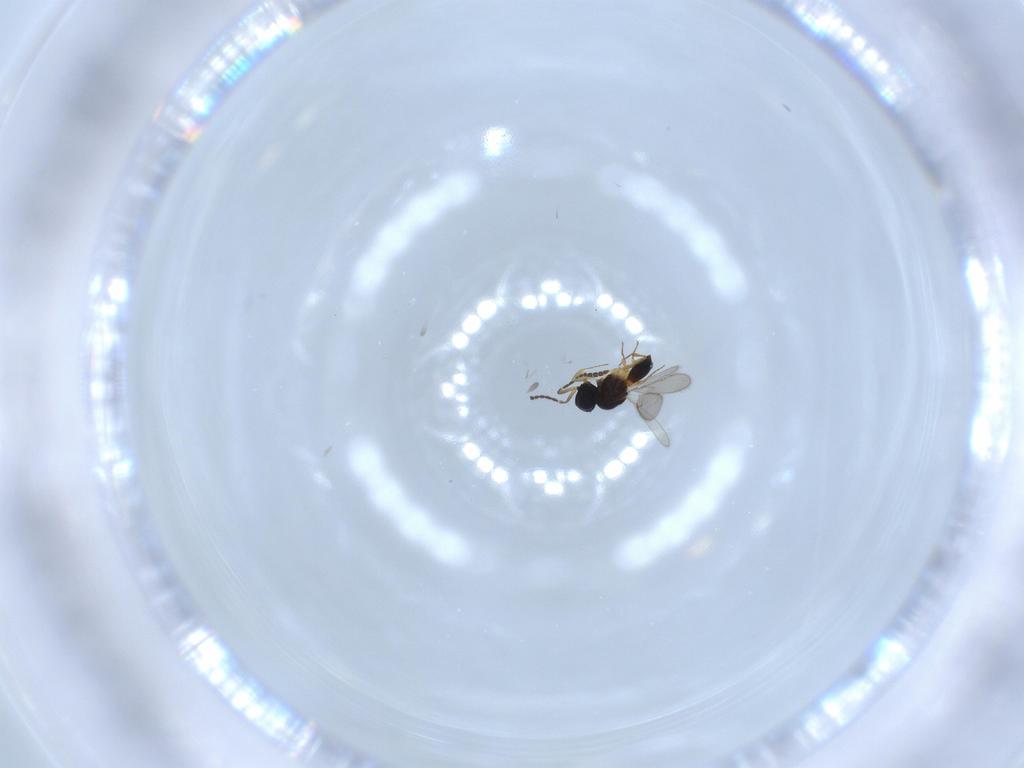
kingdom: Animalia
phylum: Arthropoda
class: Insecta
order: Hymenoptera
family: Scelionidae
